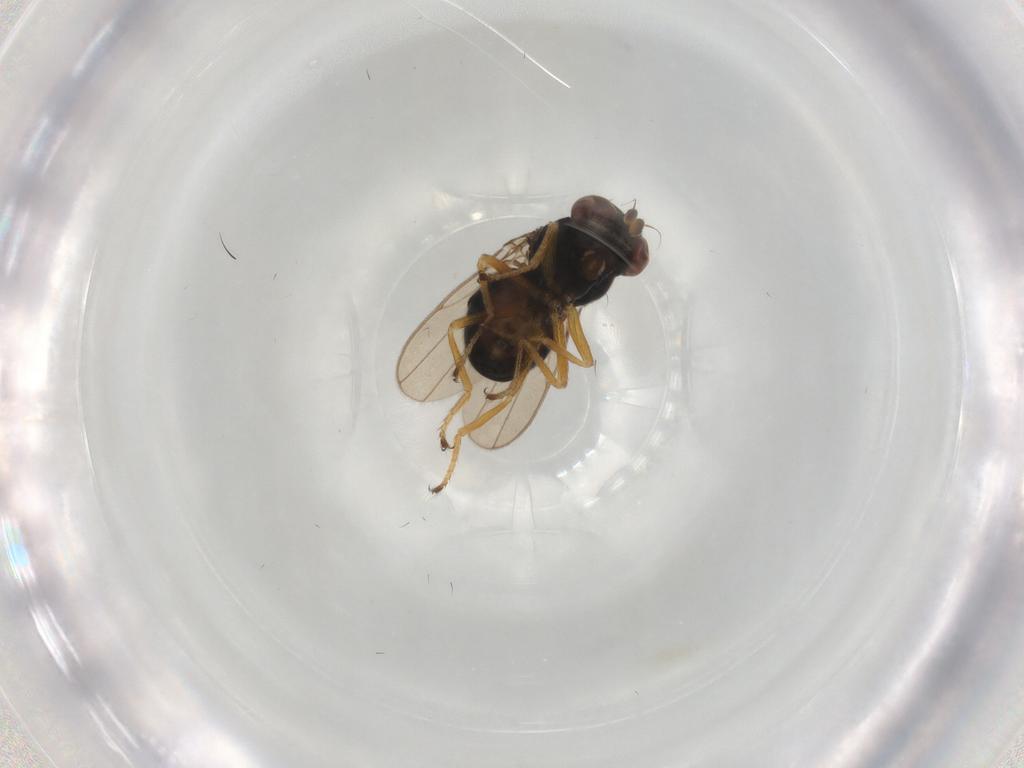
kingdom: Animalia
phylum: Arthropoda
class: Insecta
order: Diptera
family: Ephydridae
